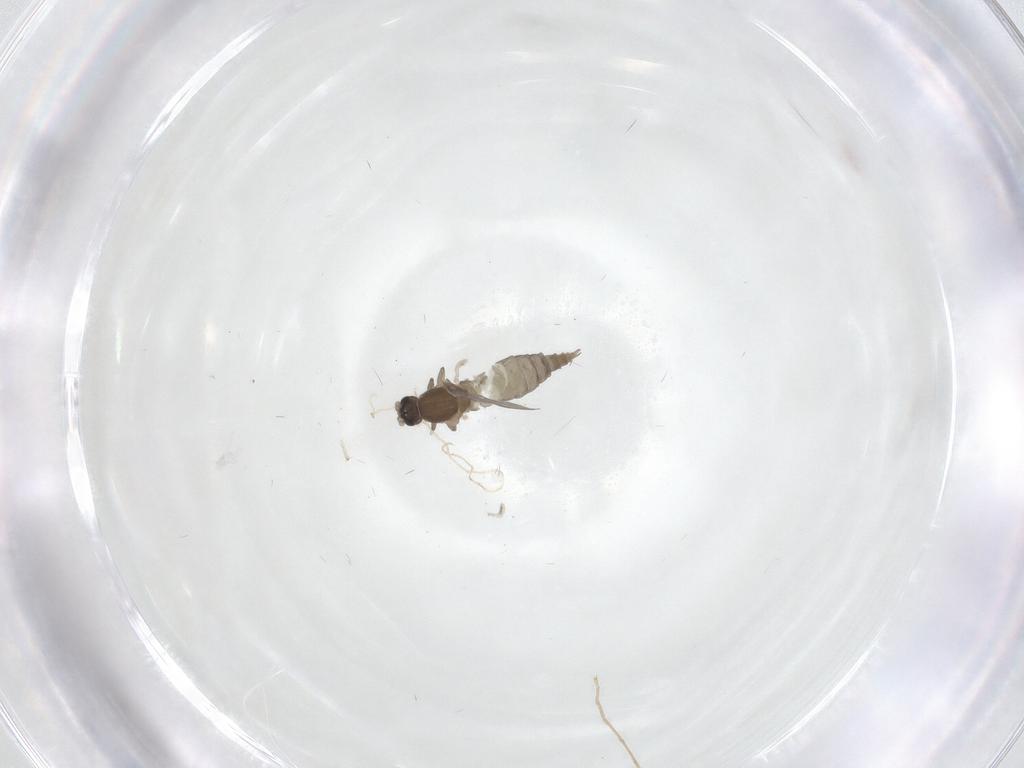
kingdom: Animalia
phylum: Arthropoda
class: Insecta
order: Diptera
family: Cecidomyiidae
